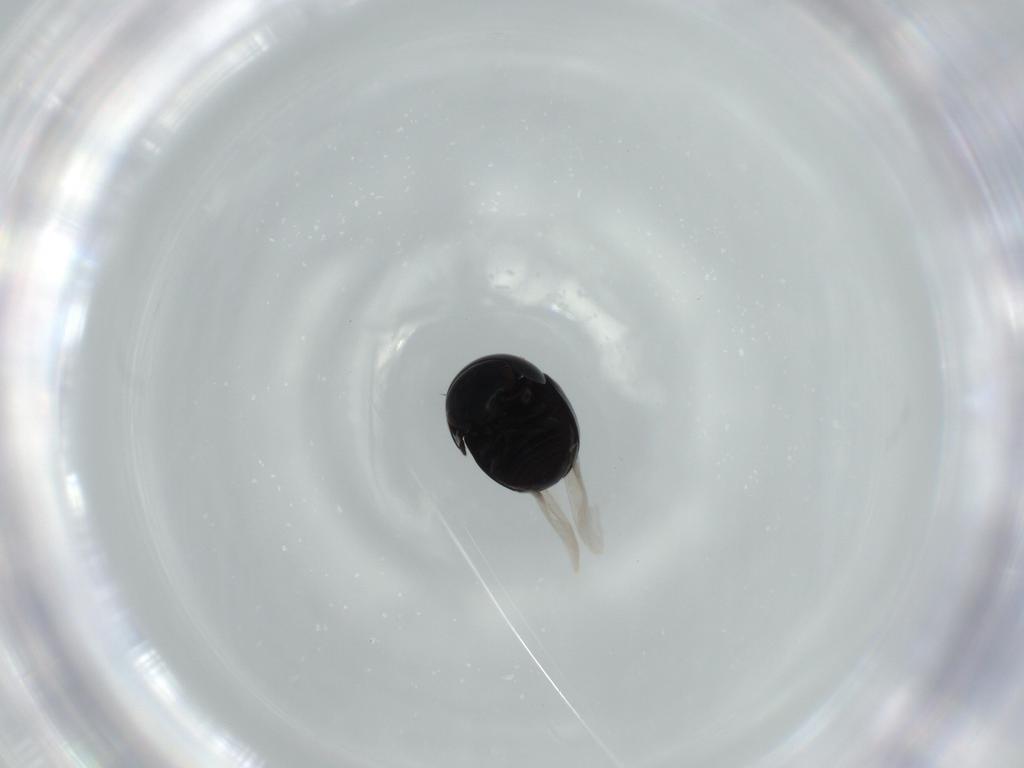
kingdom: Animalia
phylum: Arthropoda
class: Insecta
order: Coleoptera
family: Cybocephalidae
